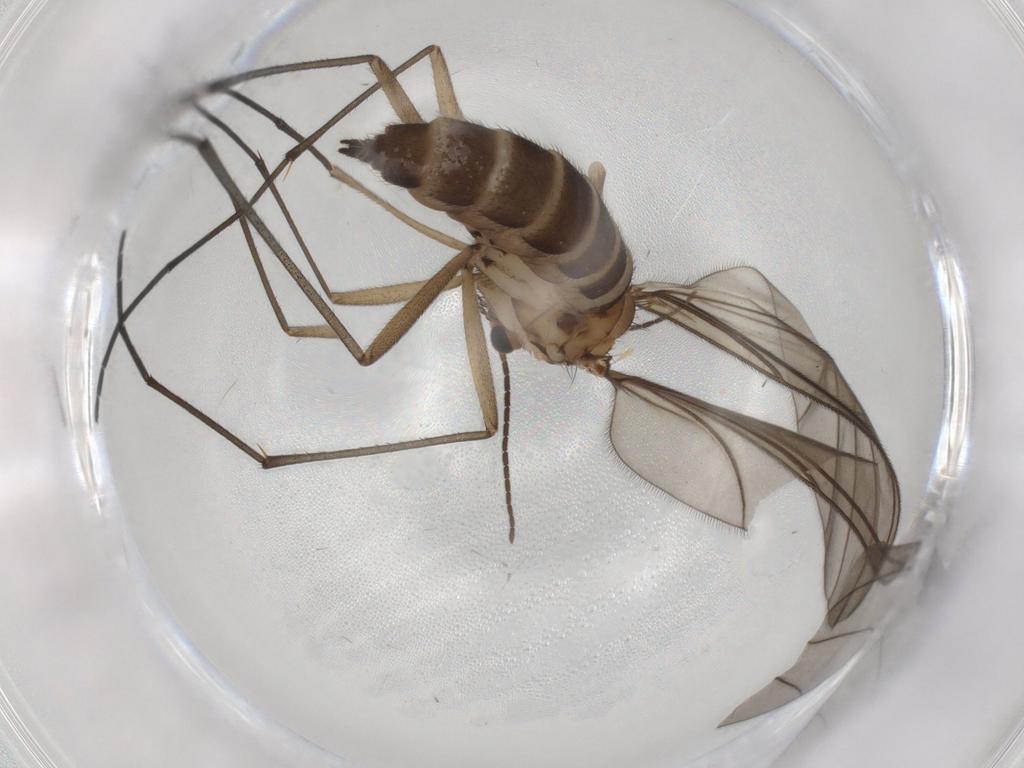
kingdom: Animalia
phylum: Arthropoda
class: Insecta
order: Diptera
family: Sciaridae
